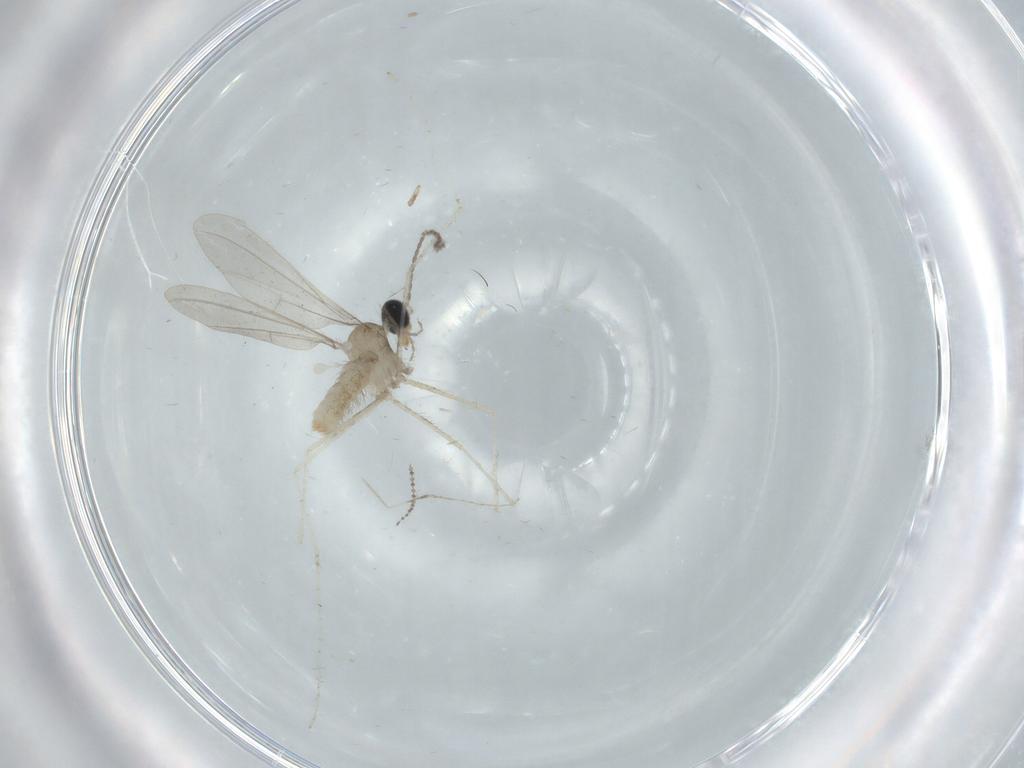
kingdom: Animalia
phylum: Arthropoda
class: Insecta
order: Diptera
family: Cecidomyiidae
